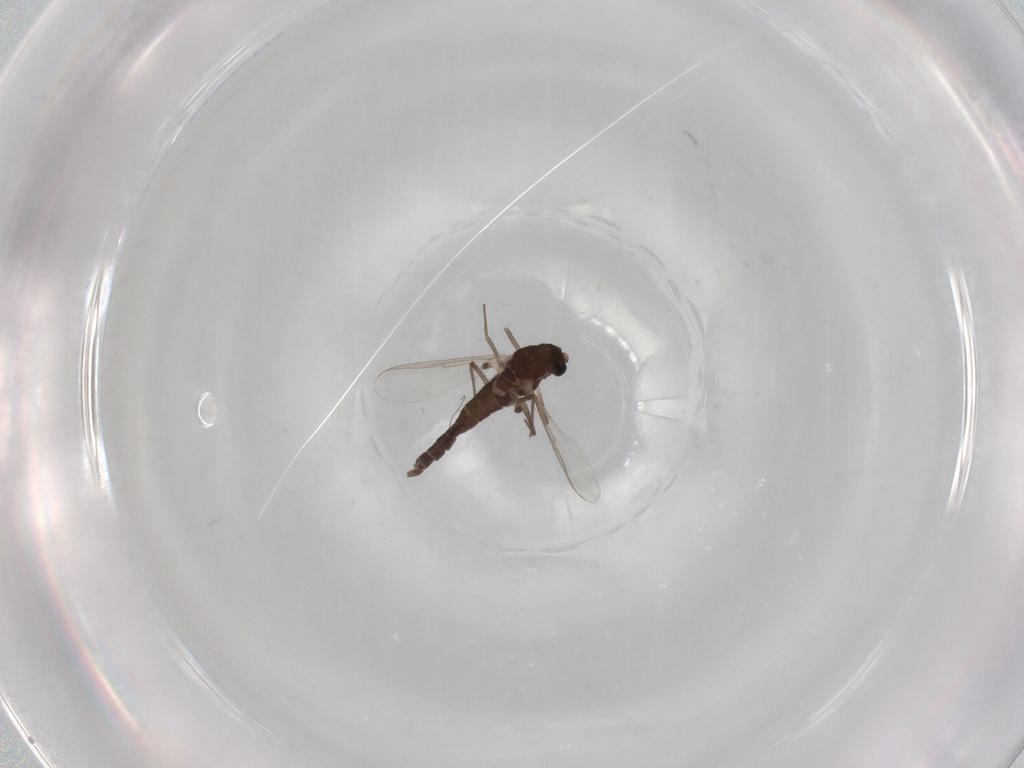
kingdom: Animalia
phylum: Arthropoda
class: Insecta
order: Diptera
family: Chironomidae
